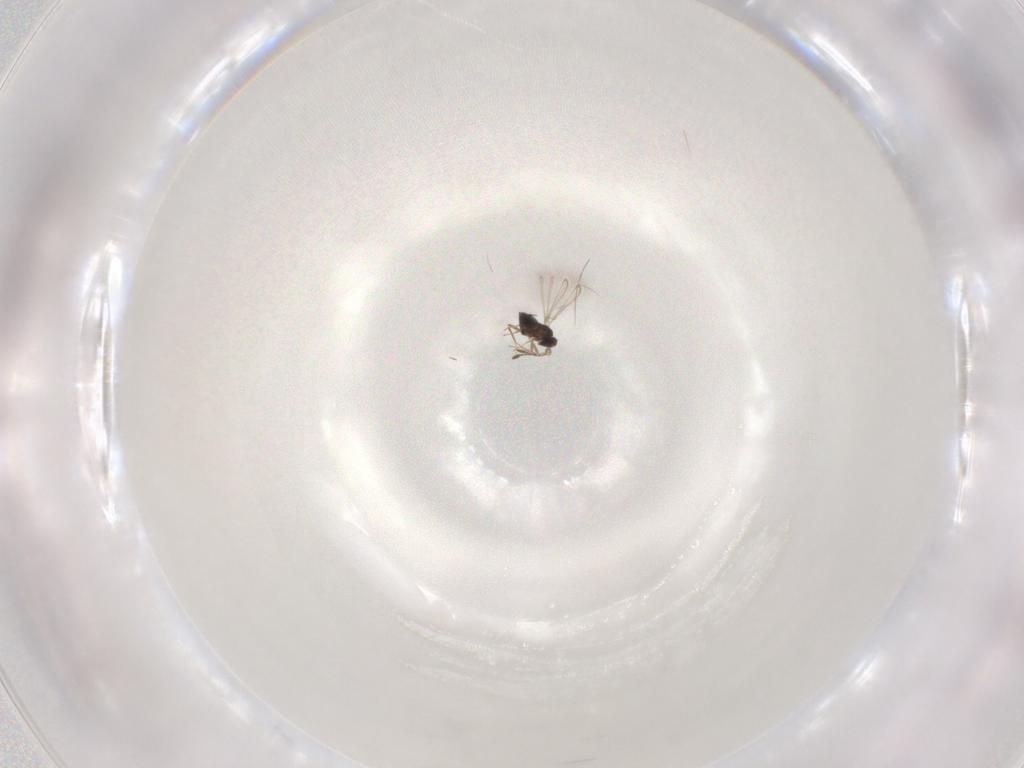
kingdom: Animalia
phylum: Arthropoda
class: Insecta
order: Hymenoptera
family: Mymaridae
